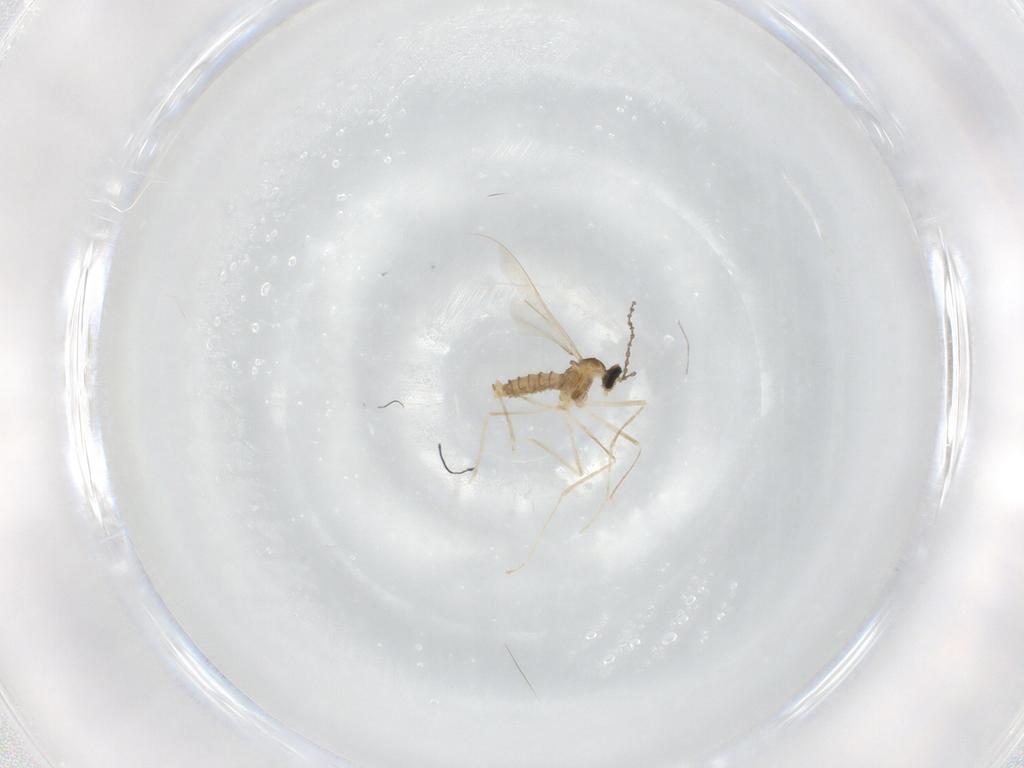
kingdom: Animalia
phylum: Arthropoda
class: Insecta
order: Diptera
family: Cecidomyiidae
